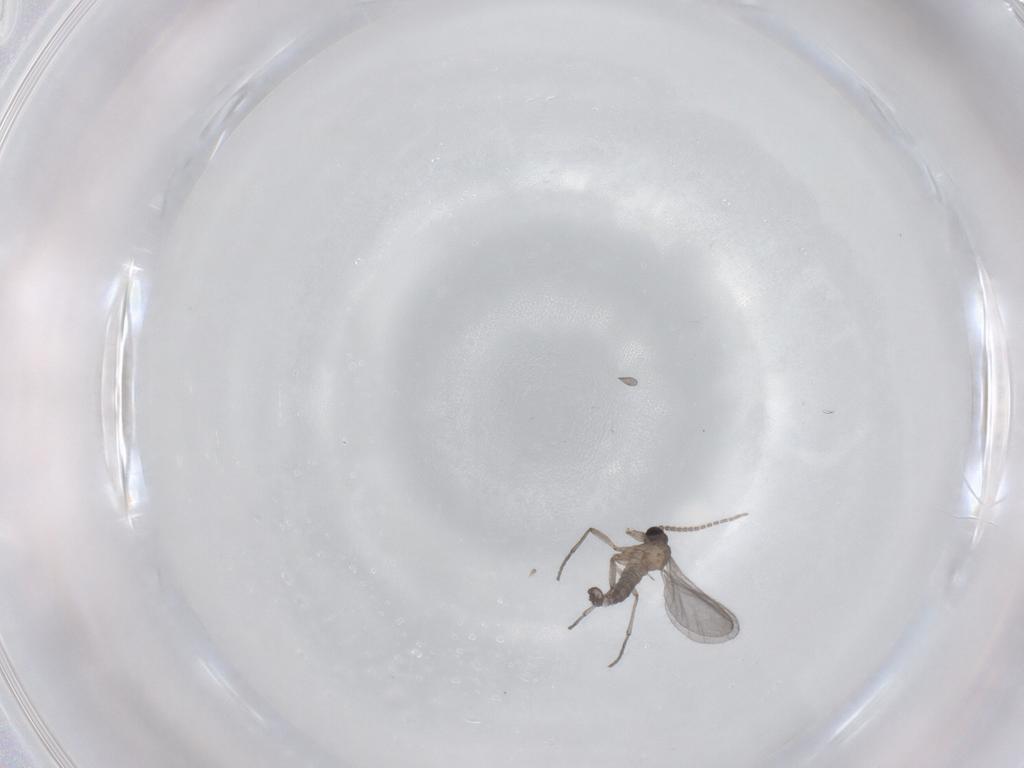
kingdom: Animalia
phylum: Arthropoda
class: Insecta
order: Diptera
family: Sciaridae
